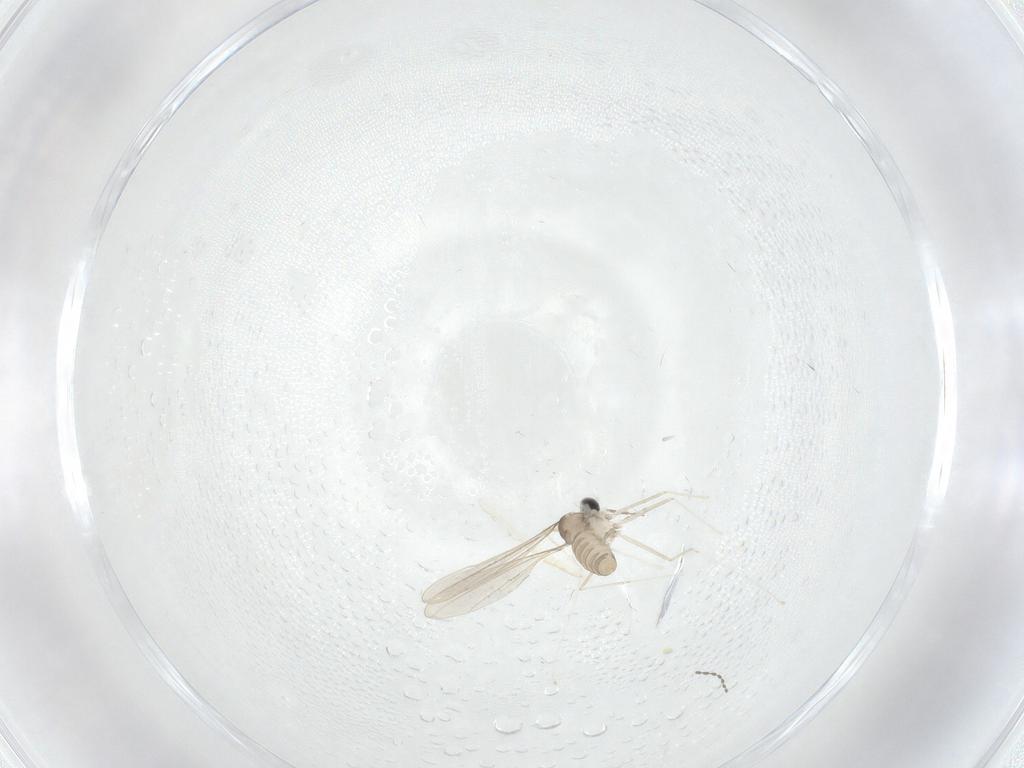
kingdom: Animalia
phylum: Arthropoda
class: Insecta
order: Diptera
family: Cecidomyiidae
